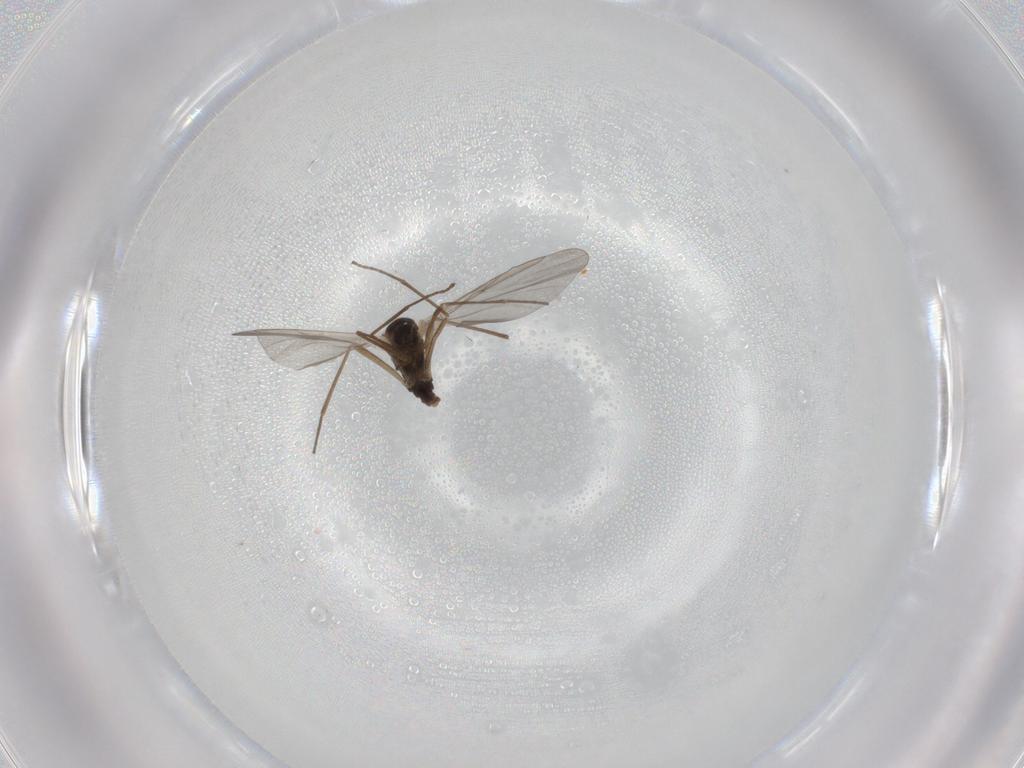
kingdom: Animalia
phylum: Arthropoda
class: Insecta
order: Diptera
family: Cecidomyiidae
